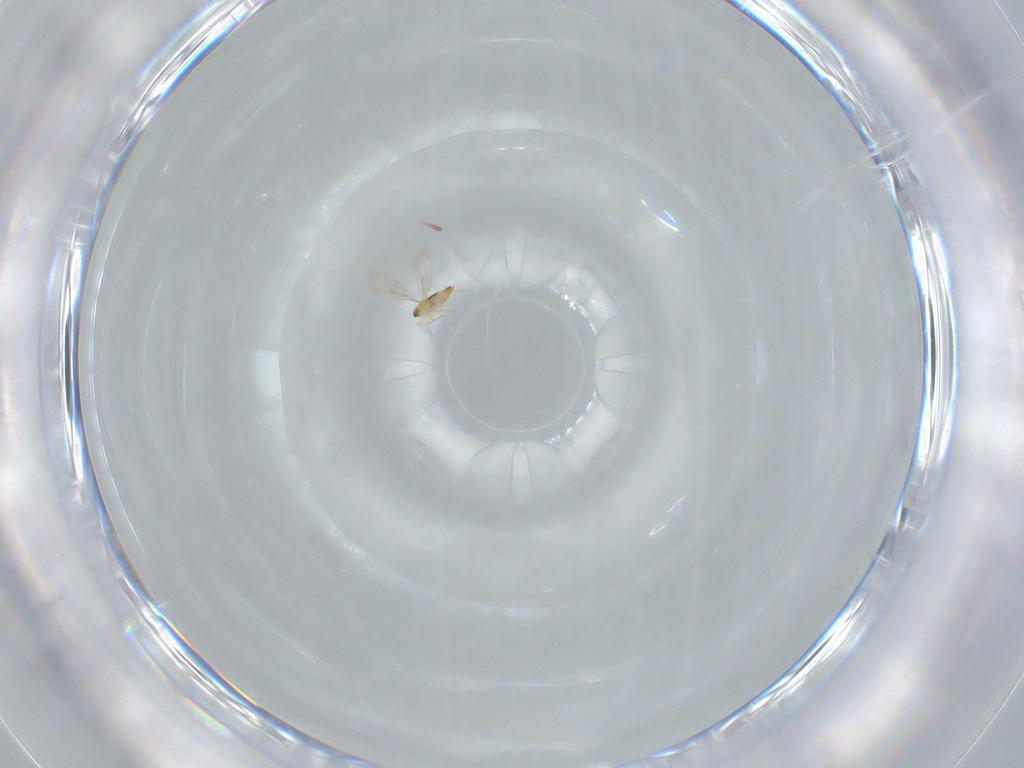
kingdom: Animalia
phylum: Arthropoda
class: Insecta
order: Hymenoptera
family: Aphelinidae
